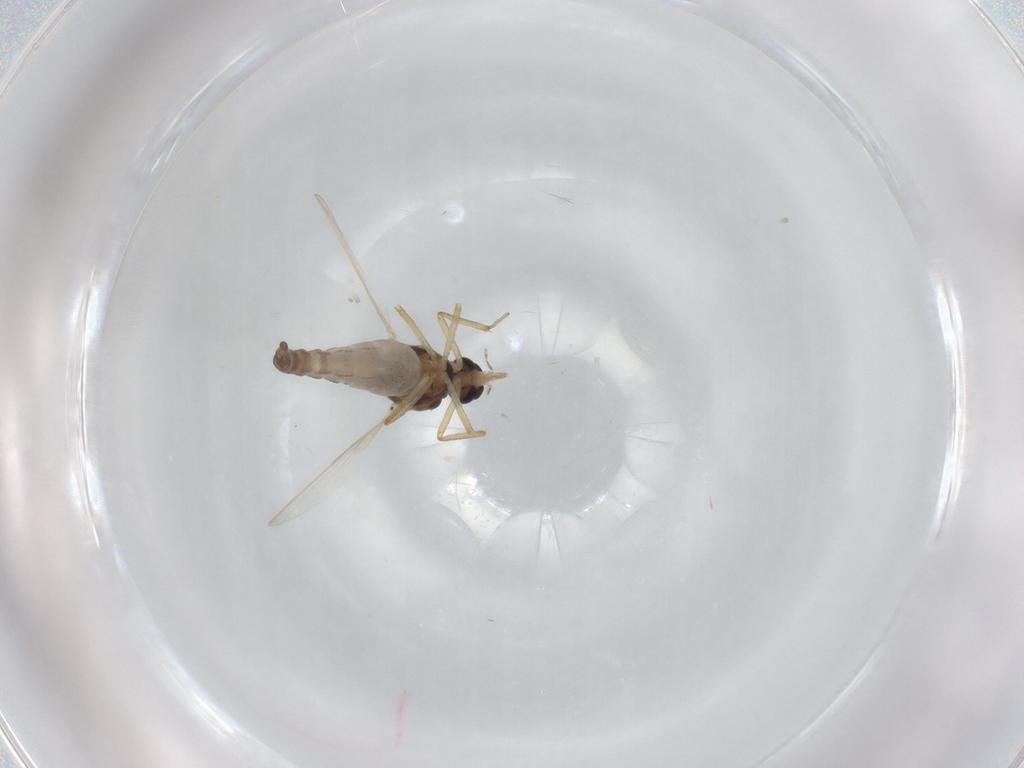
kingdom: Animalia
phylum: Arthropoda
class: Insecta
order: Diptera
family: Ceratopogonidae
